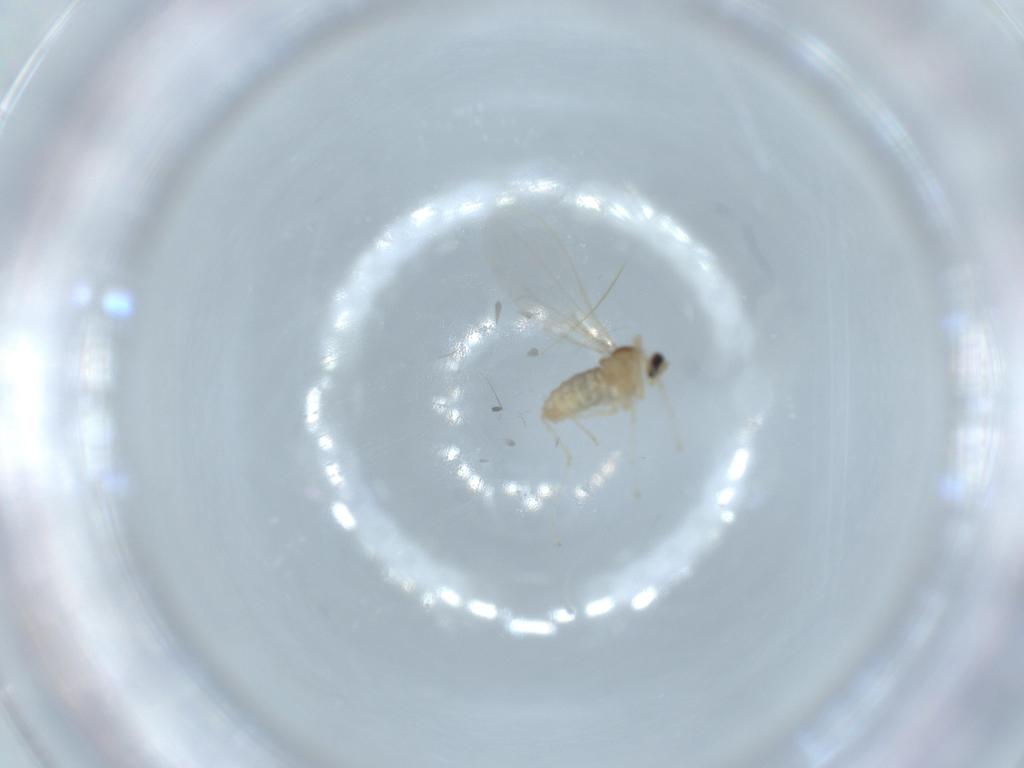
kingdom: Animalia
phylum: Arthropoda
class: Insecta
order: Diptera
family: Cecidomyiidae
